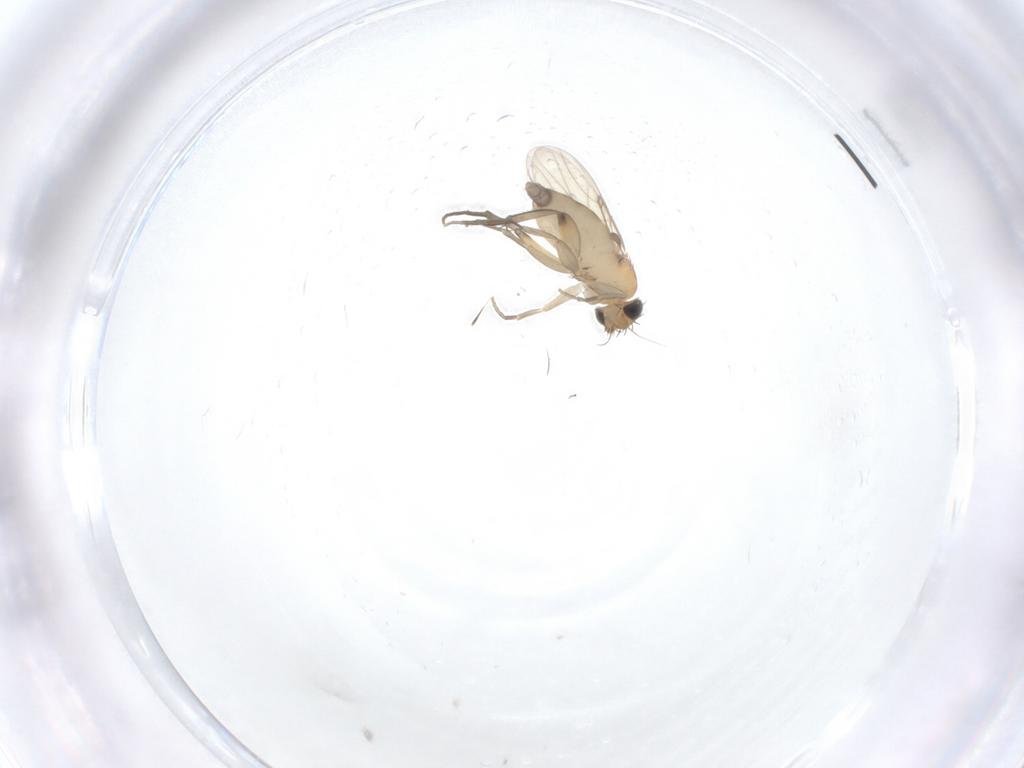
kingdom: Animalia
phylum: Arthropoda
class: Insecta
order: Diptera
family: Phoridae
